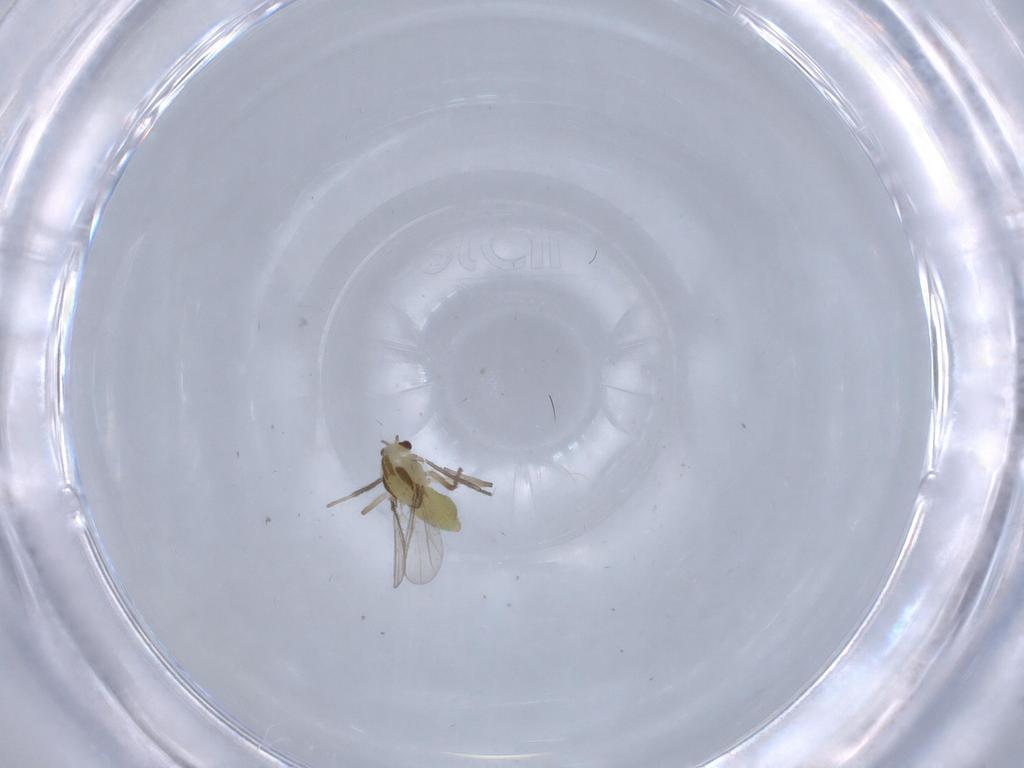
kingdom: Animalia
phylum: Arthropoda
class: Insecta
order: Diptera
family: Chironomidae
